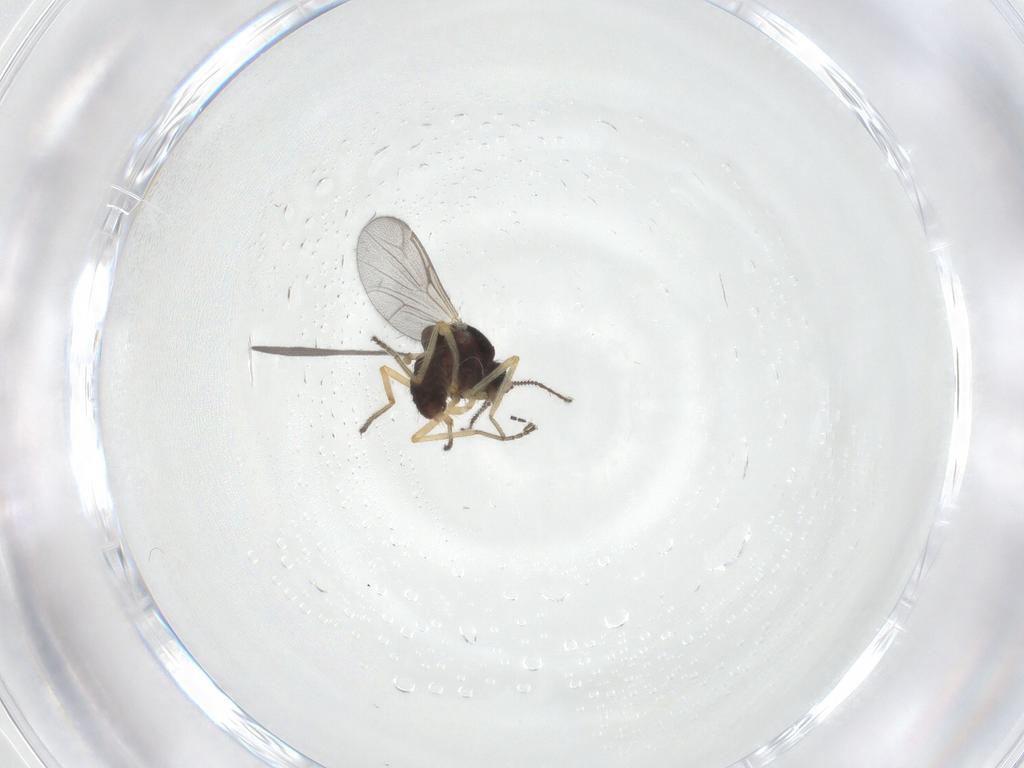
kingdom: Animalia
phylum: Arthropoda
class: Insecta
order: Diptera
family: Ceratopogonidae
